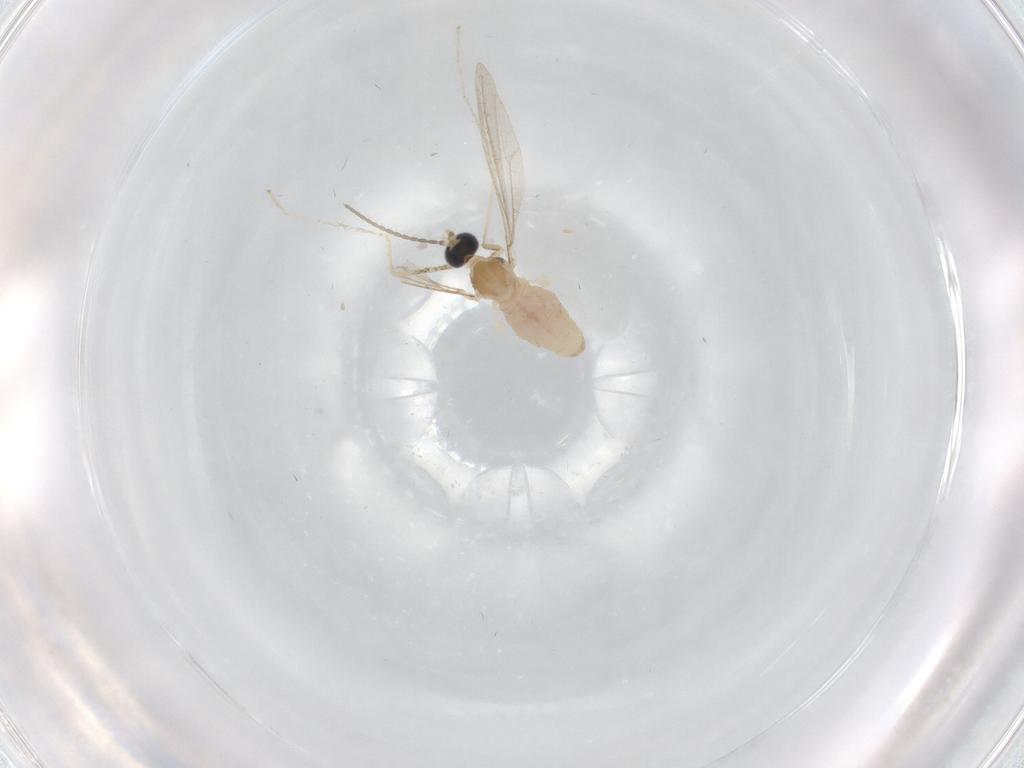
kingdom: Animalia
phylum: Arthropoda
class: Insecta
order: Diptera
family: Cecidomyiidae
